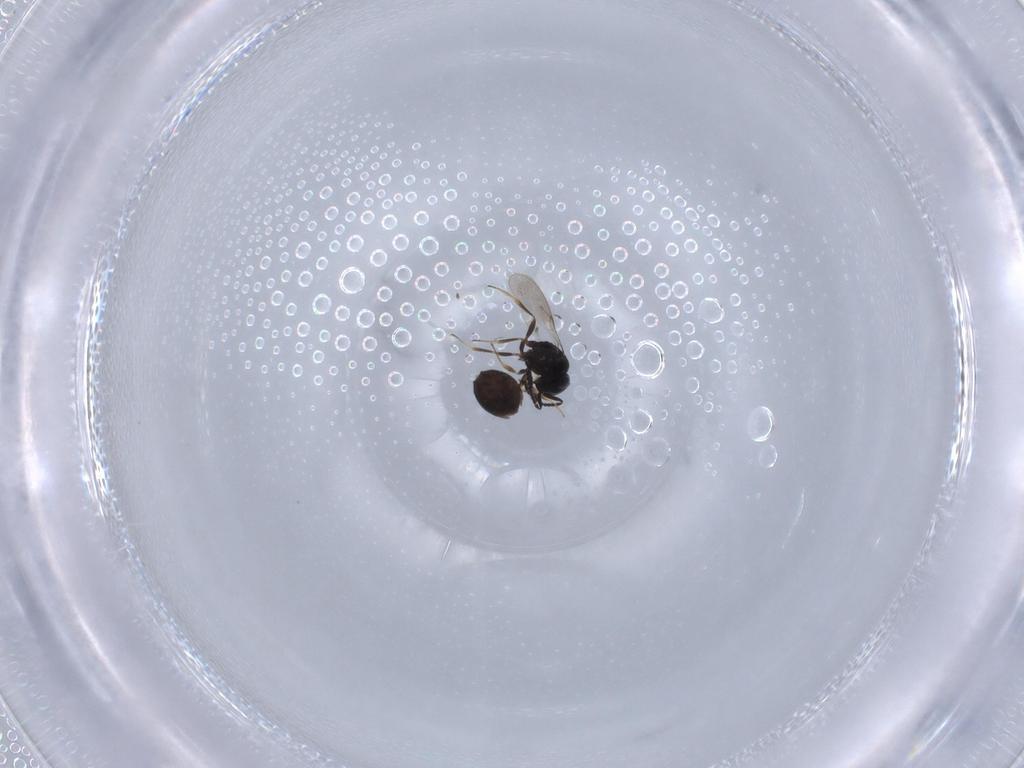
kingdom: Animalia
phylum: Arthropoda
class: Insecta
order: Hymenoptera
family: Scelionidae
